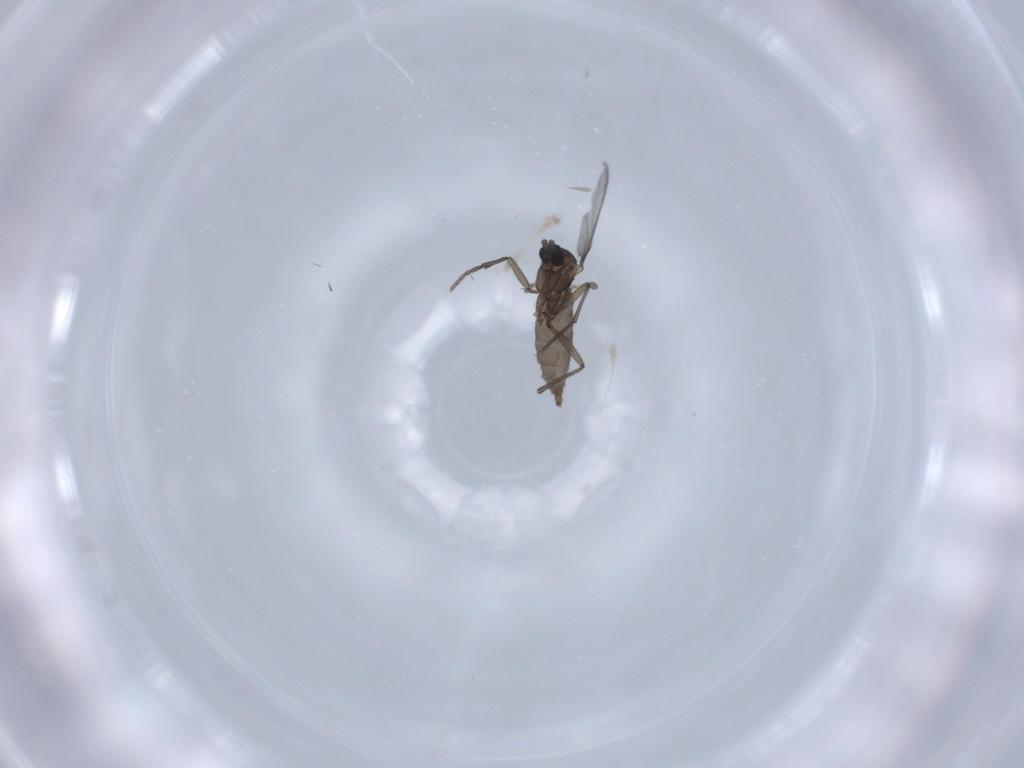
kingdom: Animalia
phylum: Arthropoda
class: Insecta
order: Diptera
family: Sciaridae
